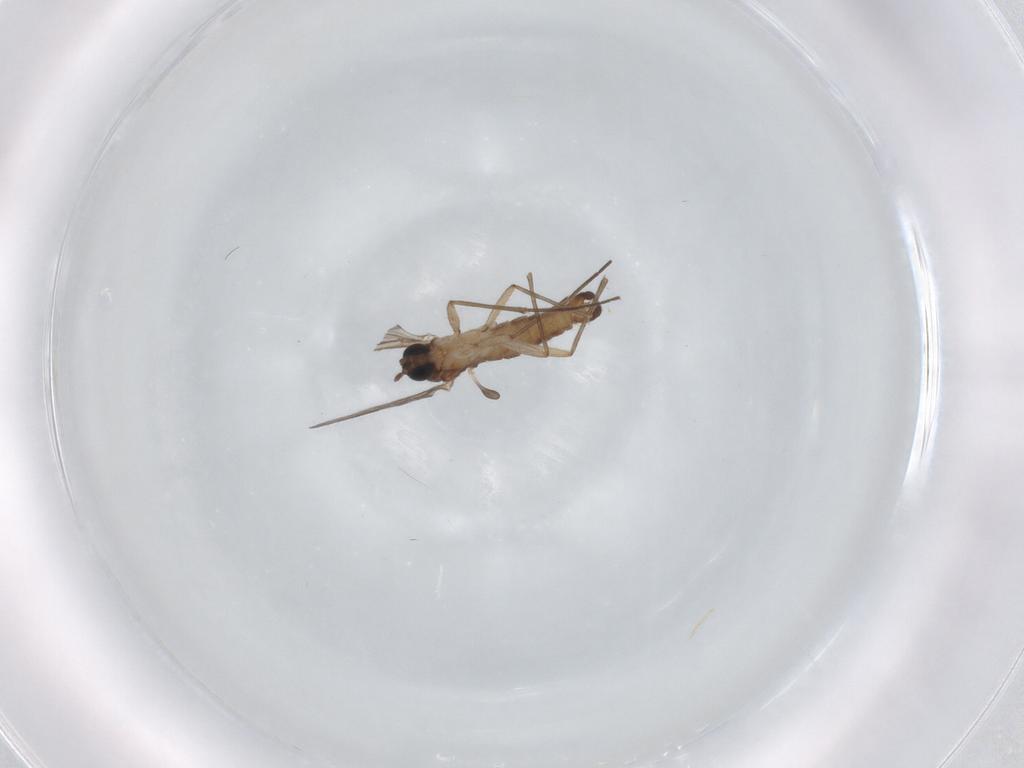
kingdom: Animalia
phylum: Arthropoda
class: Insecta
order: Diptera
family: Sciaridae
